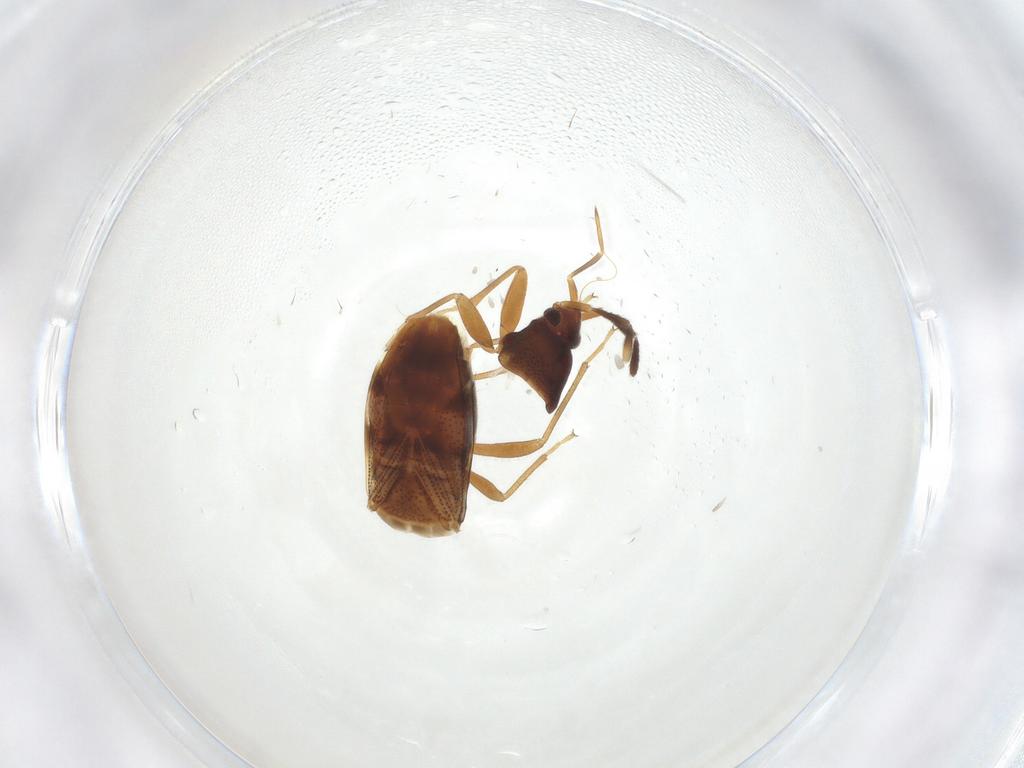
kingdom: Animalia
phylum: Arthropoda
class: Insecta
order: Hemiptera
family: Rhyparochromidae
